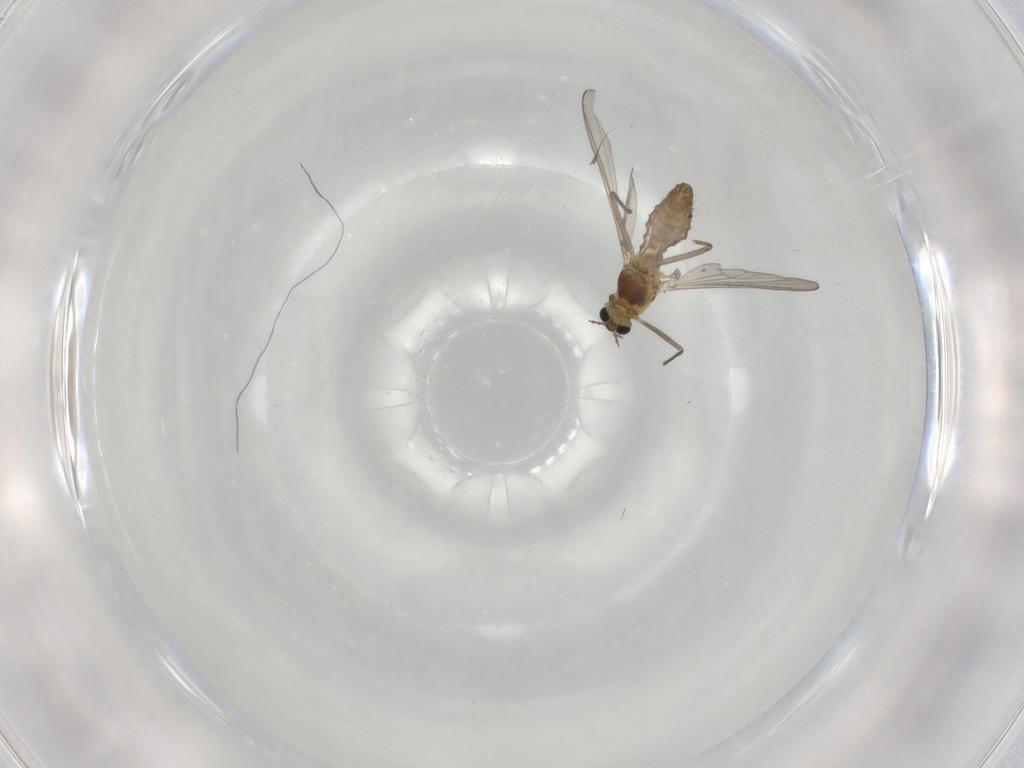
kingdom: Animalia
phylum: Arthropoda
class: Insecta
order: Diptera
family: Chironomidae
